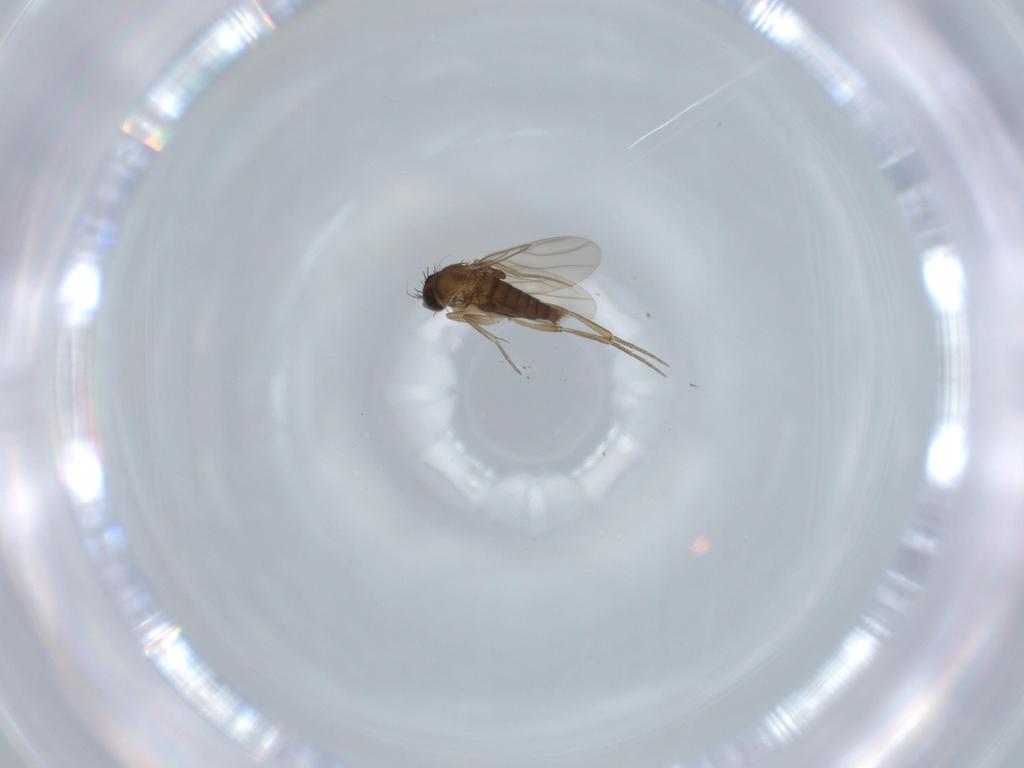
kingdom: Animalia
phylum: Arthropoda
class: Insecta
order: Diptera
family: Phoridae
